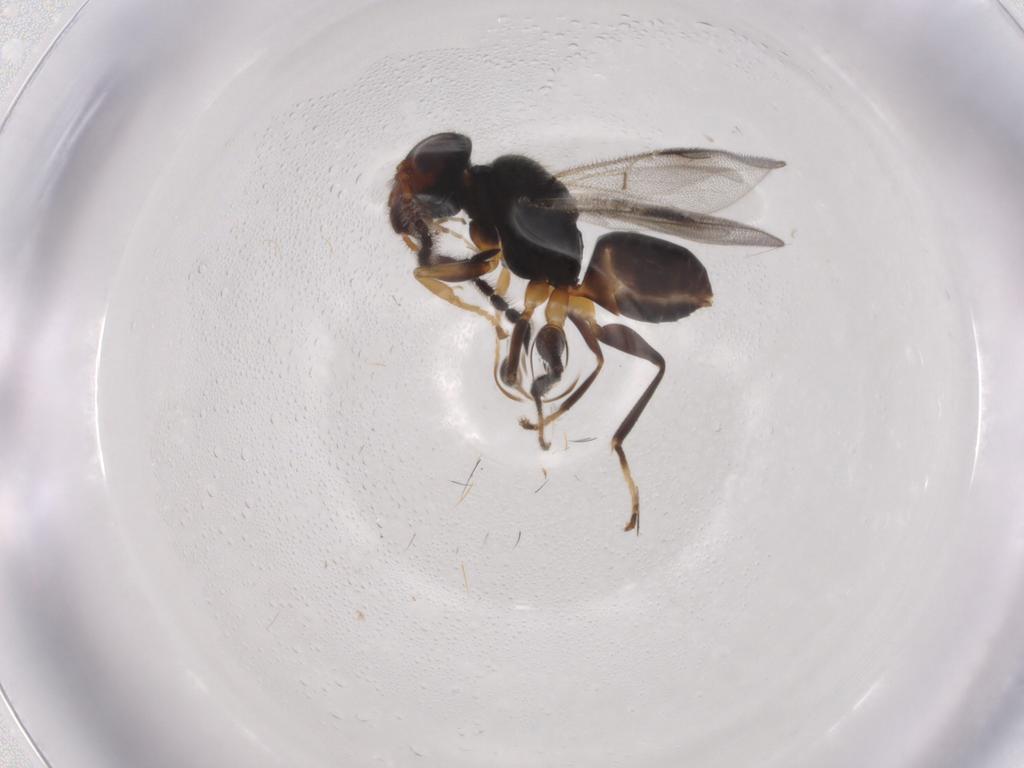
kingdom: Animalia
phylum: Arthropoda
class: Insecta
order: Hymenoptera
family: Dryinidae
